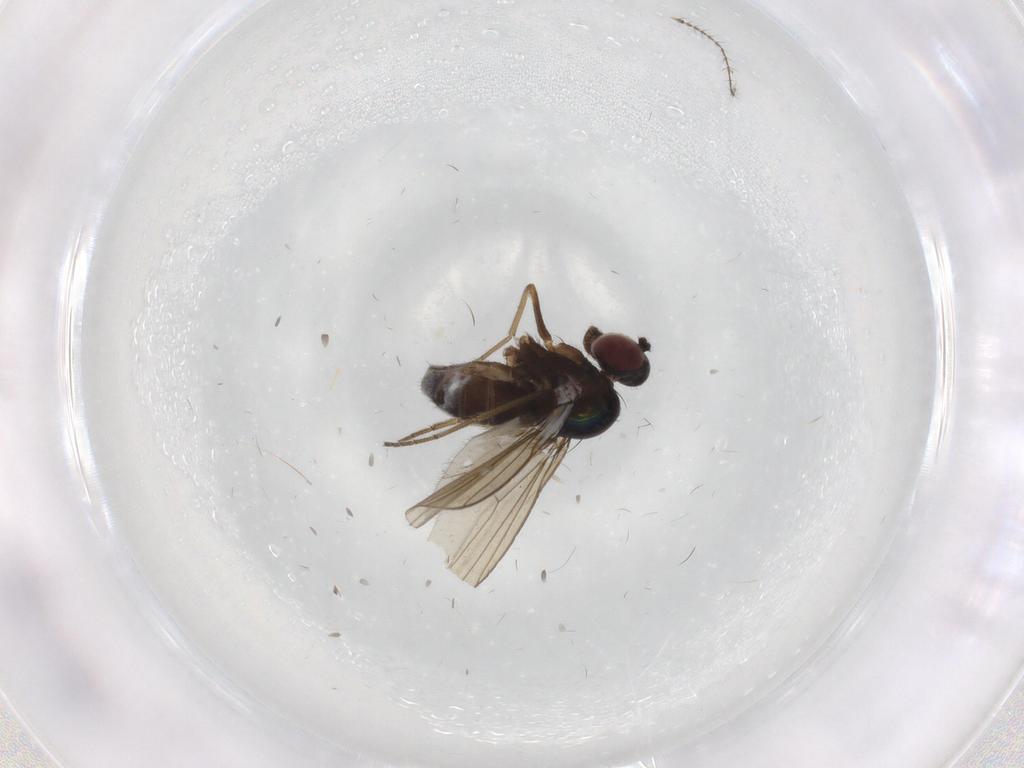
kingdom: Animalia
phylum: Arthropoda
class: Insecta
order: Diptera
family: Dolichopodidae
